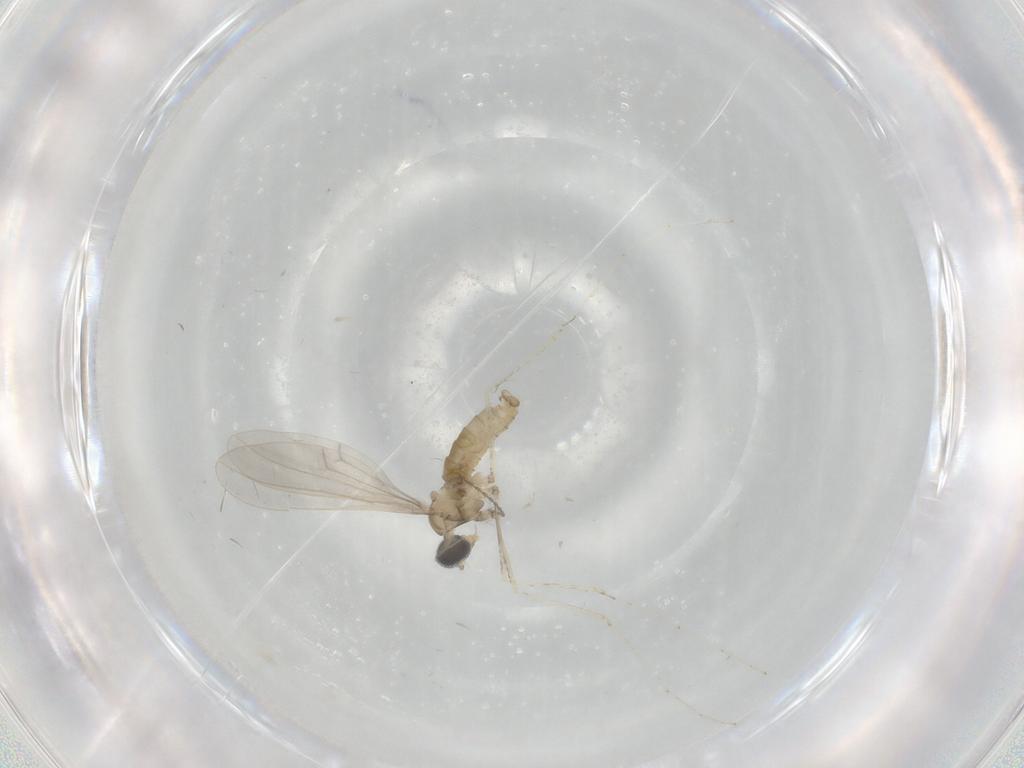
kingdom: Animalia
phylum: Arthropoda
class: Insecta
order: Diptera
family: Cecidomyiidae
